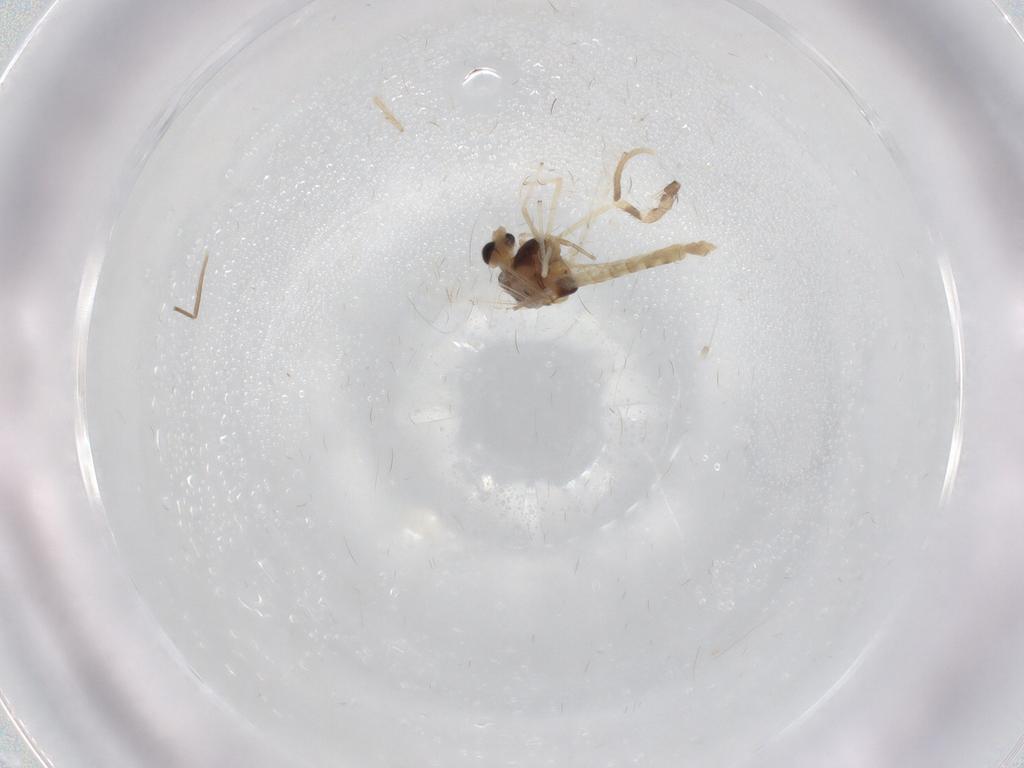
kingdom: Animalia
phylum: Arthropoda
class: Insecta
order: Diptera
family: Chironomidae
